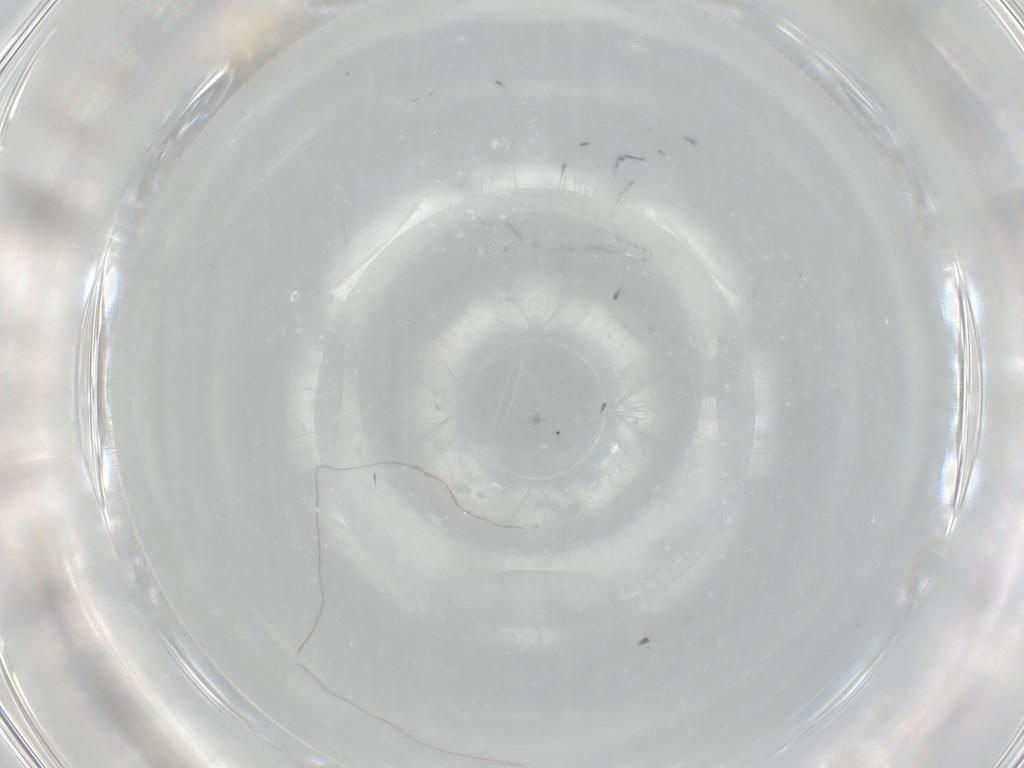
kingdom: Animalia
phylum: Arthropoda
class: Insecta
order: Diptera
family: Cecidomyiidae
